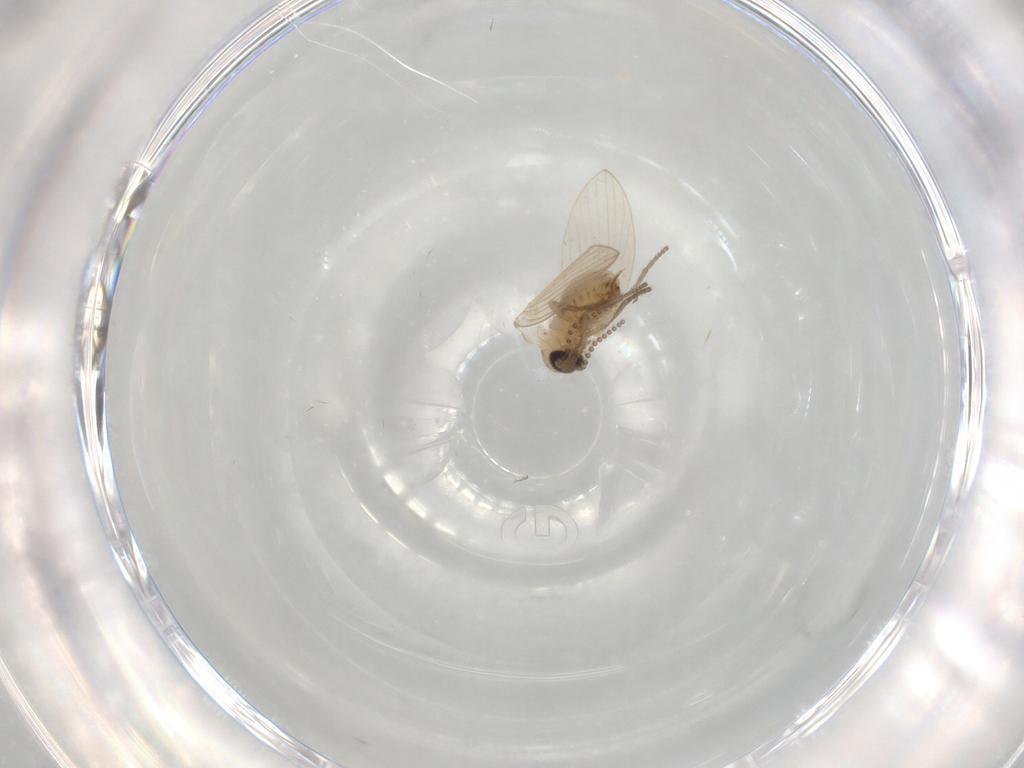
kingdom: Animalia
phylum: Arthropoda
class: Insecta
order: Diptera
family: Psychodidae
